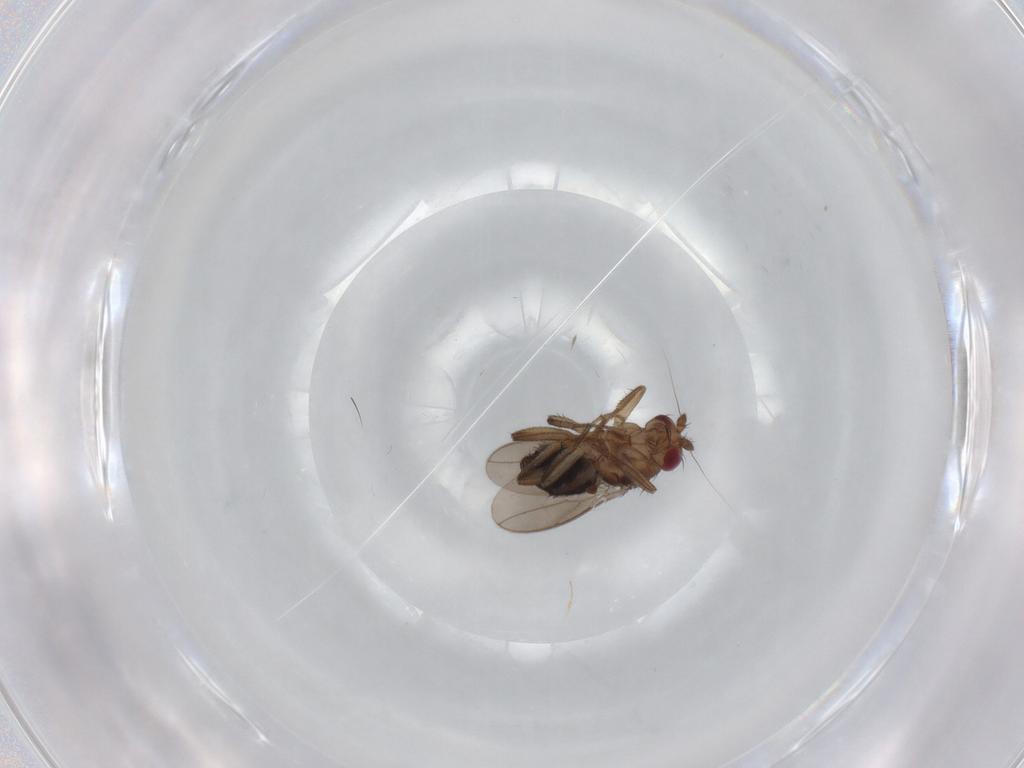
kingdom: Animalia
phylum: Arthropoda
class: Insecta
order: Diptera
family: Sphaeroceridae
